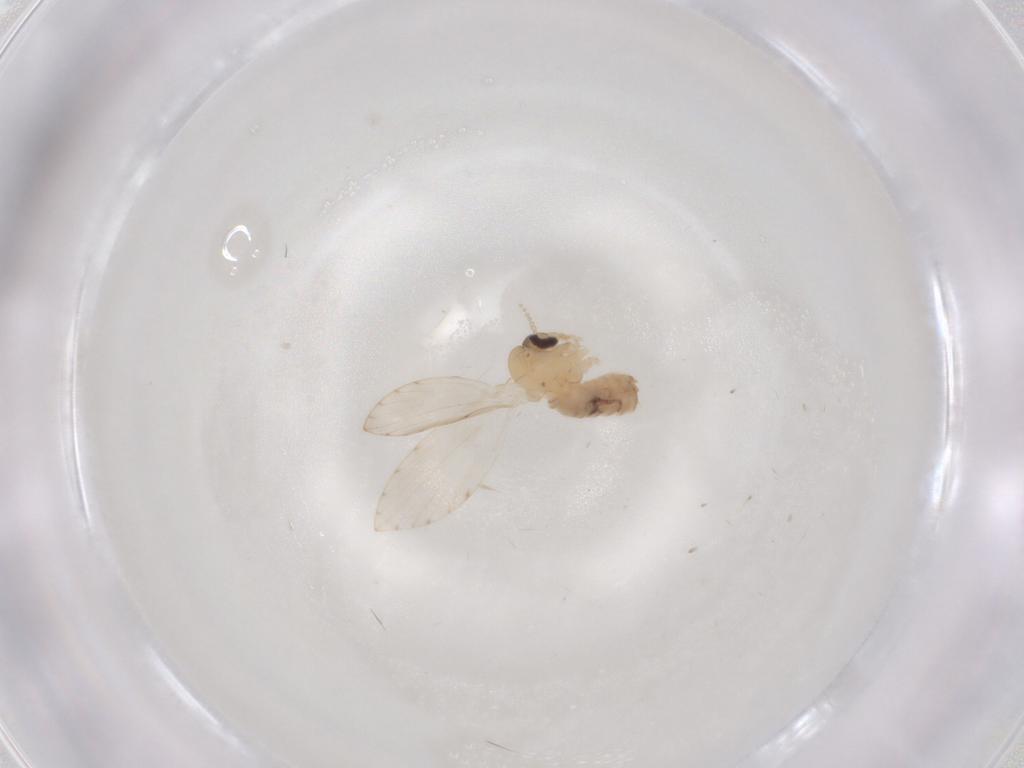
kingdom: Animalia
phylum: Arthropoda
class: Insecta
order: Diptera
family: Psychodidae
